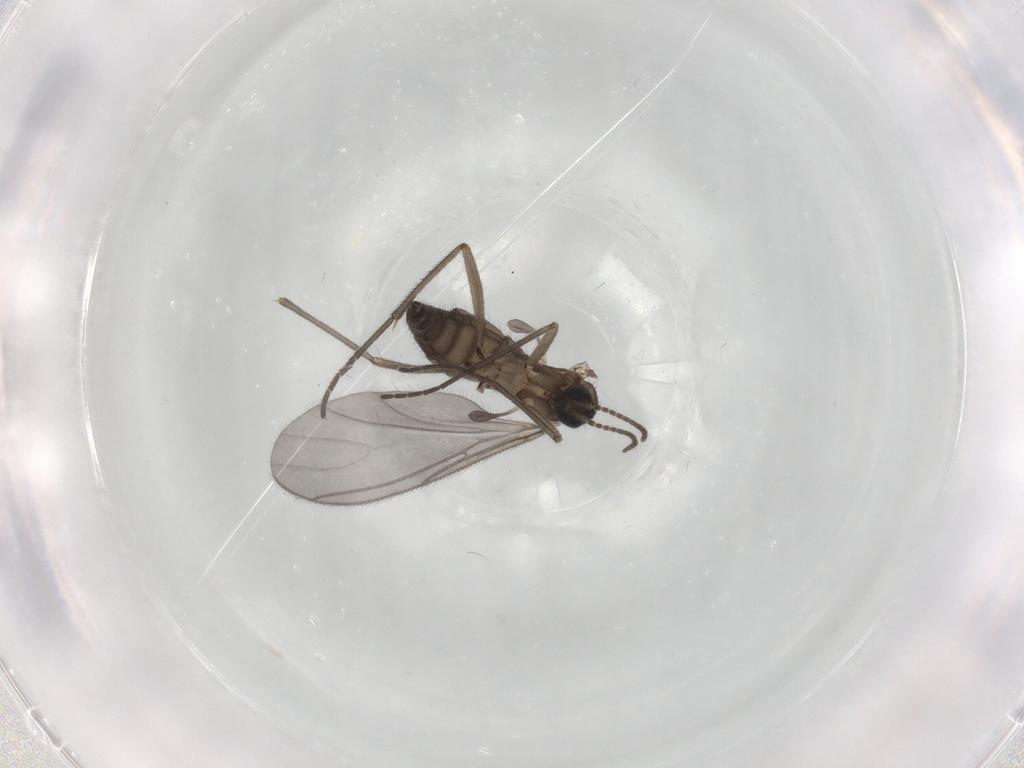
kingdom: Animalia
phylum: Arthropoda
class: Insecta
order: Diptera
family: Sciaridae
